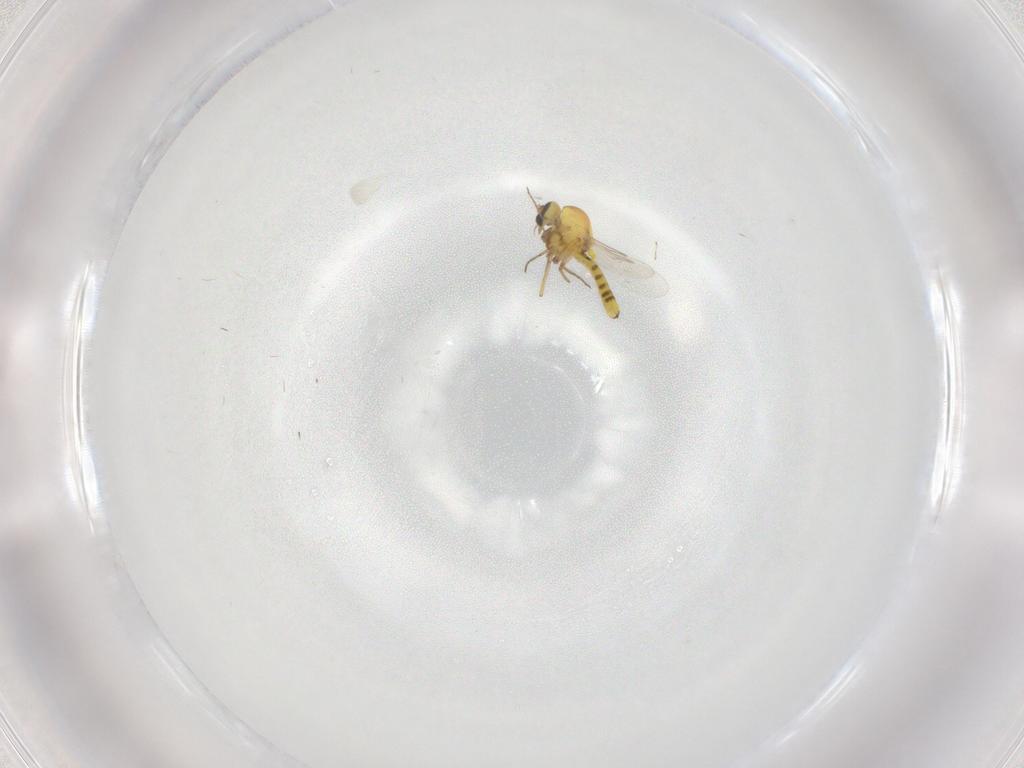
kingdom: Animalia
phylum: Arthropoda
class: Insecta
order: Diptera
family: Ceratopogonidae
